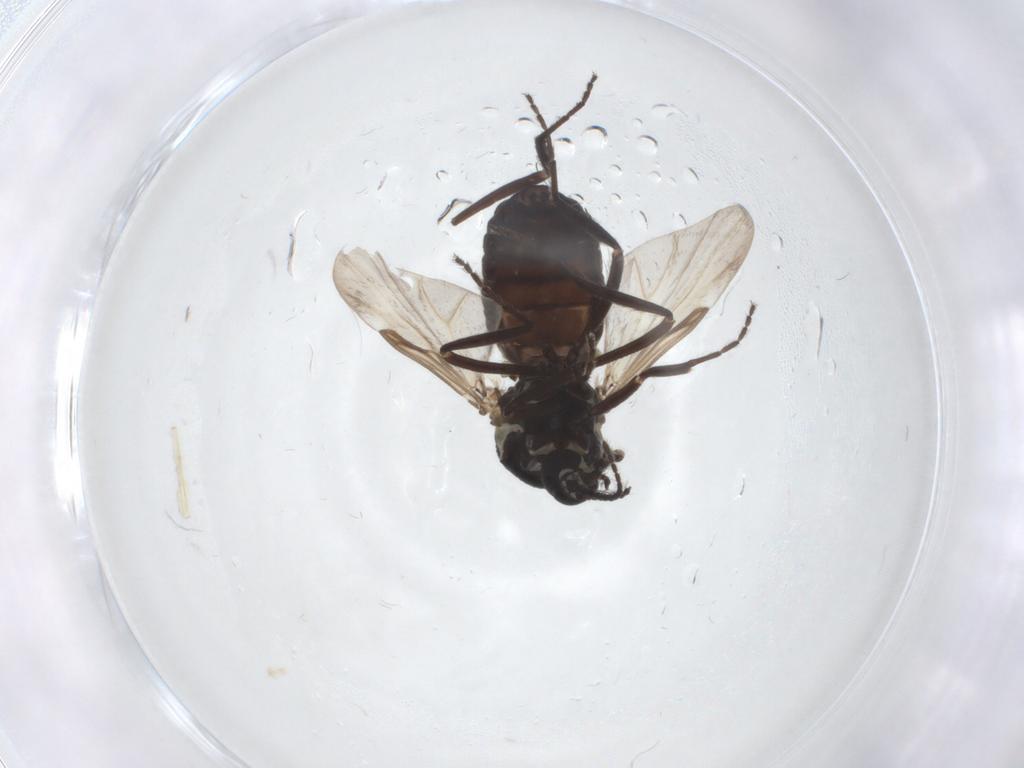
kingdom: Animalia
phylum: Arthropoda
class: Insecta
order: Diptera
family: Ceratopogonidae
